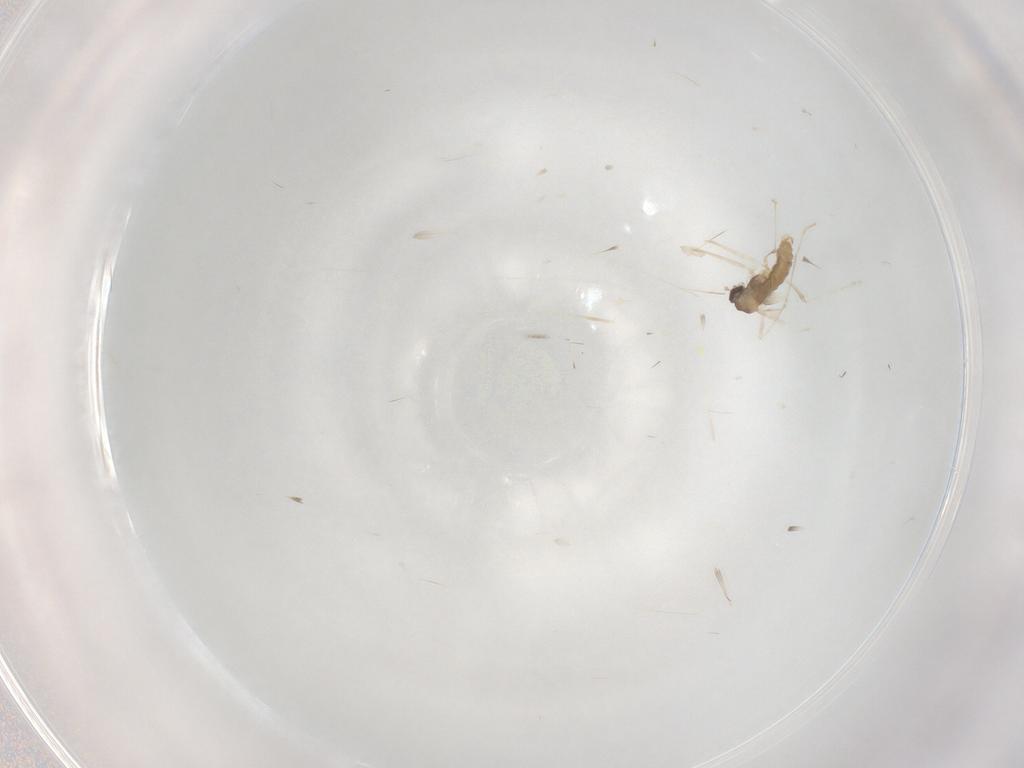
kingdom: Animalia
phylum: Arthropoda
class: Insecta
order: Diptera
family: Cecidomyiidae
